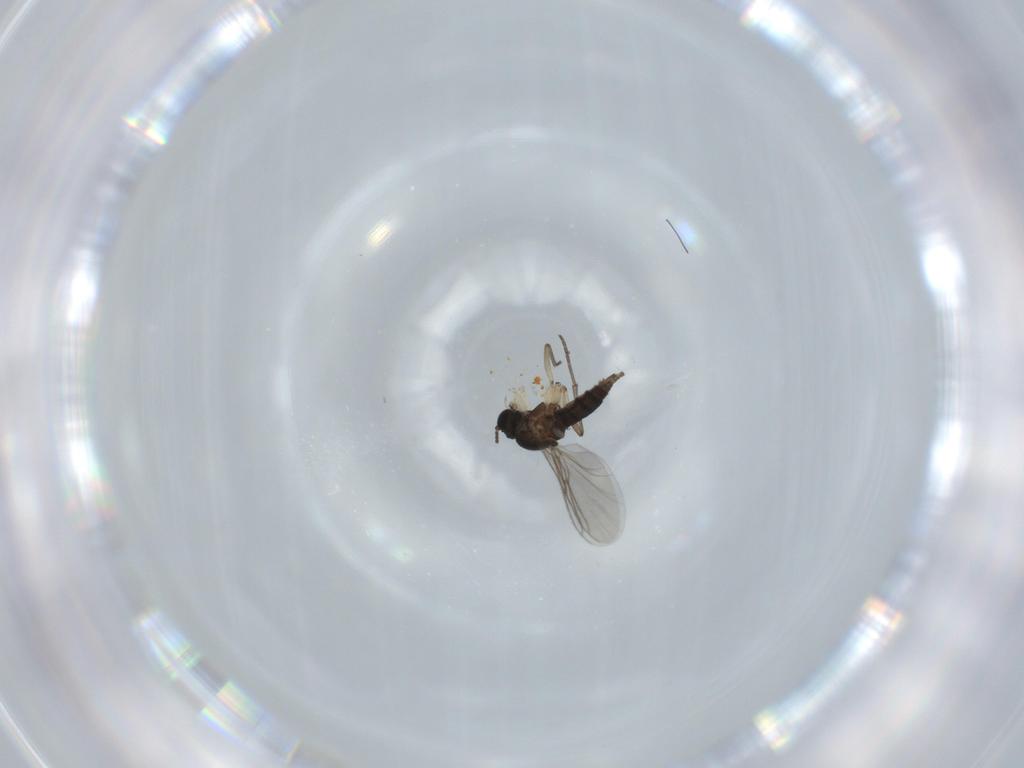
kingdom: Animalia
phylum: Arthropoda
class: Insecta
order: Diptera
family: Sciaridae
